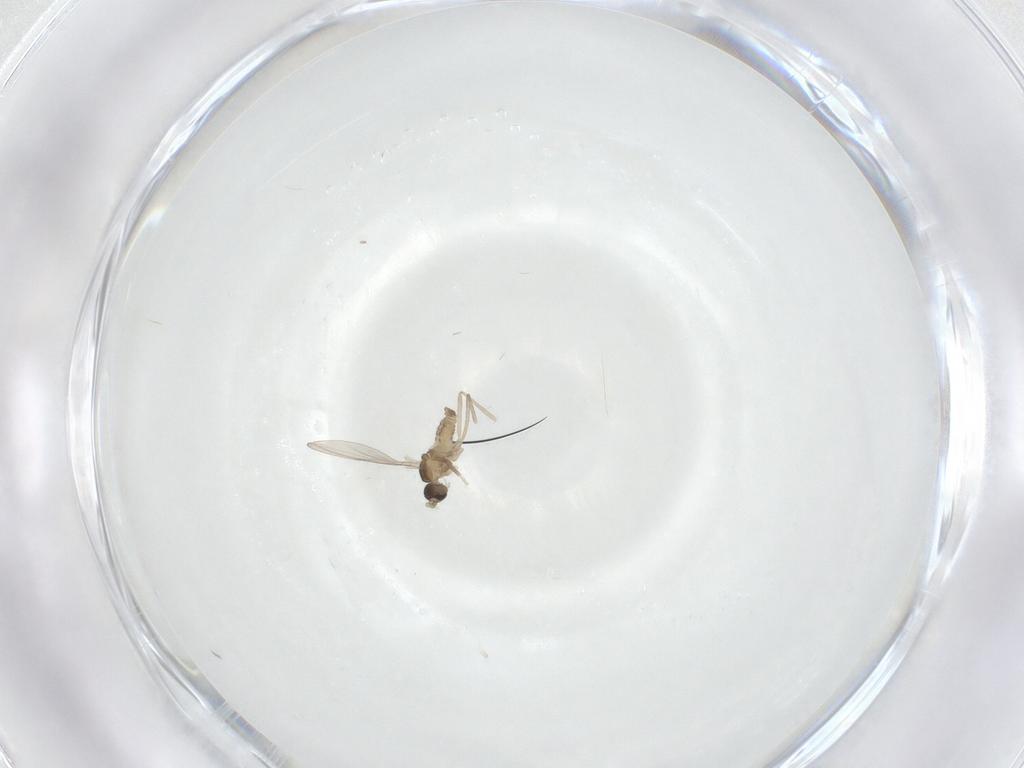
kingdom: Animalia
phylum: Arthropoda
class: Insecta
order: Diptera
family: Cecidomyiidae
